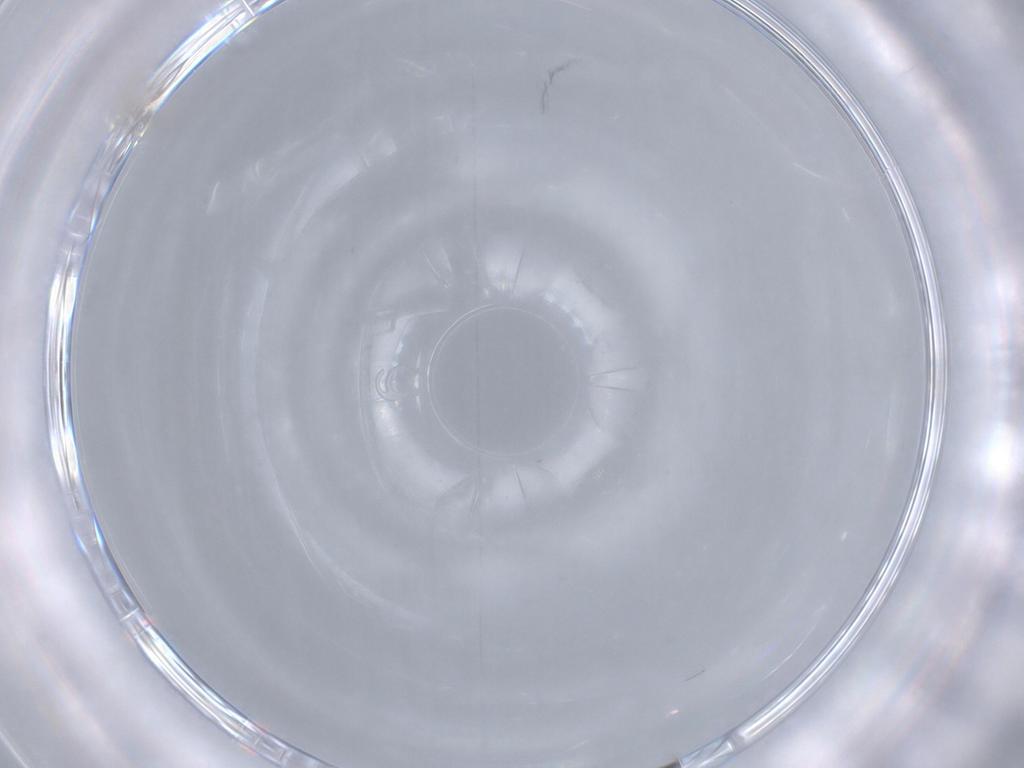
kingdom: Animalia
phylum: Arthropoda
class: Insecta
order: Diptera
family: Cecidomyiidae
